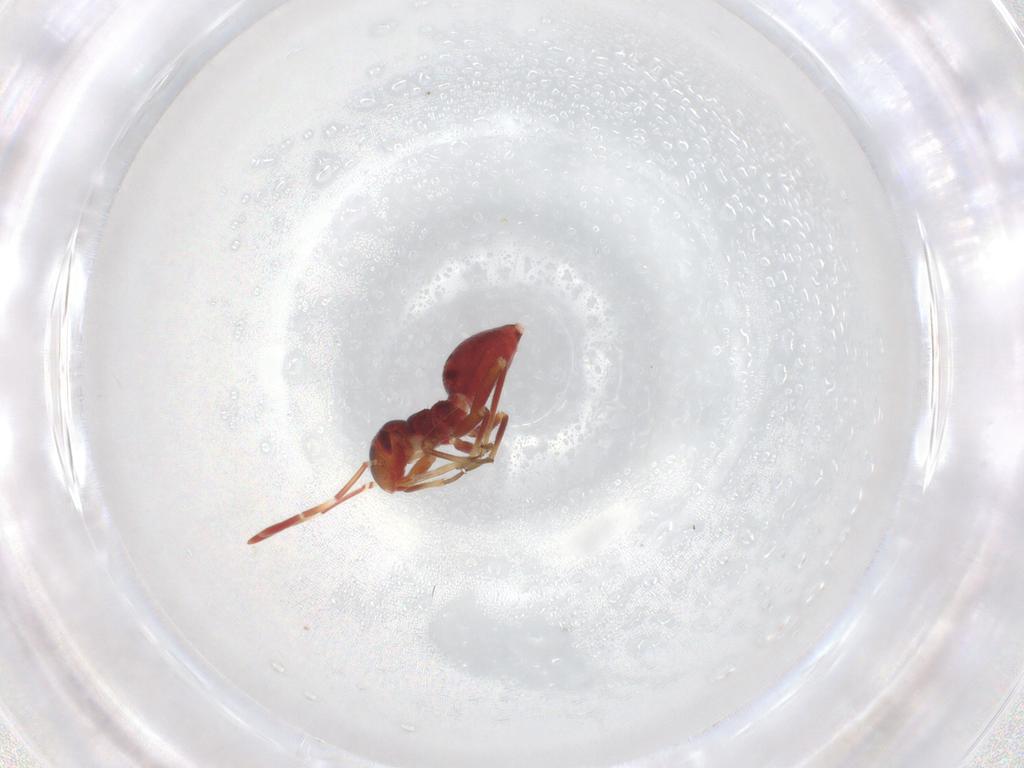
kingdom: Animalia
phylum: Arthropoda
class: Insecta
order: Hemiptera
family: Miridae
